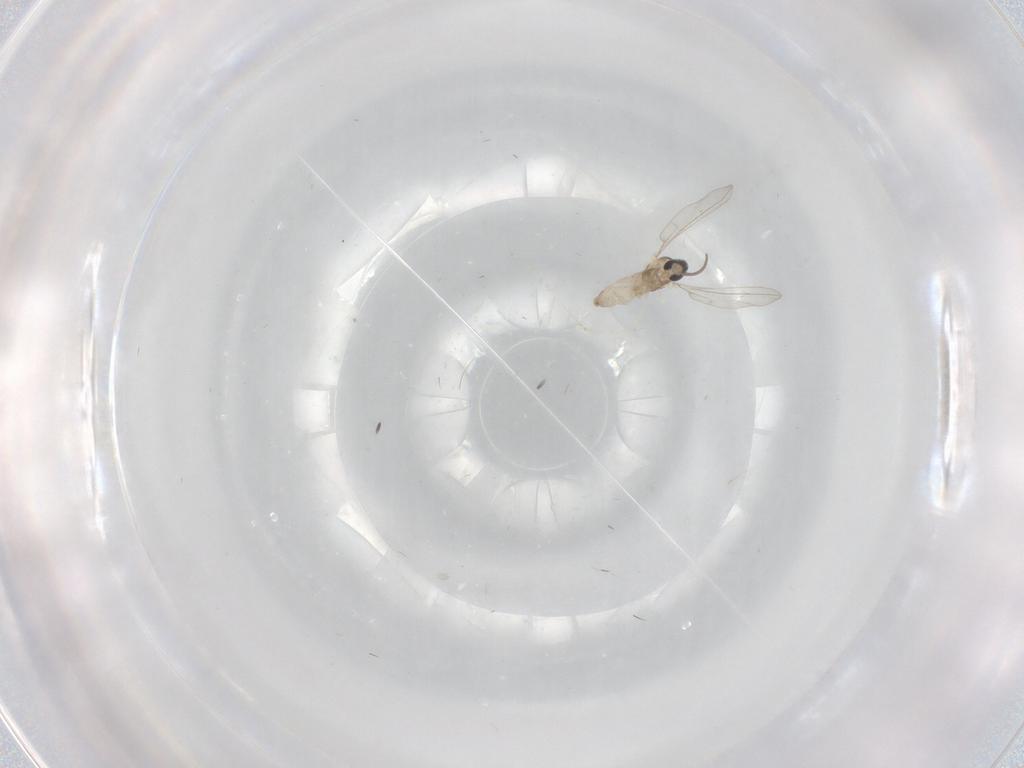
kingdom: Animalia
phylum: Arthropoda
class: Insecta
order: Diptera
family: Cecidomyiidae
